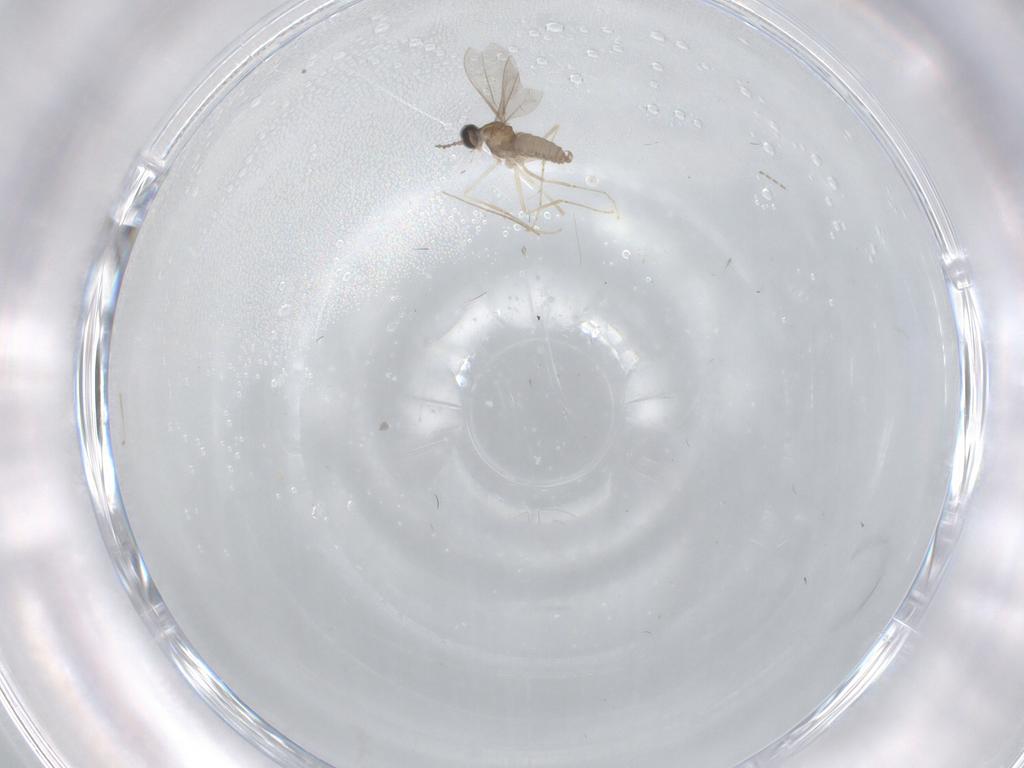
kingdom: Animalia
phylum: Arthropoda
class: Insecta
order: Diptera
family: Cecidomyiidae
